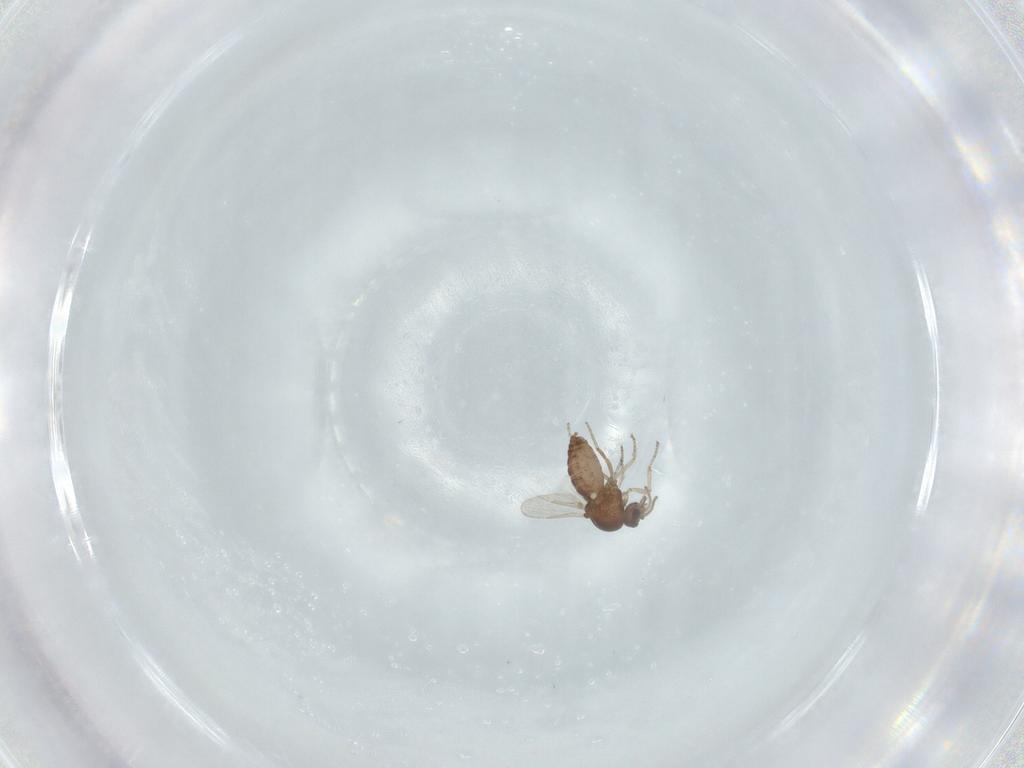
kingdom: Animalia
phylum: Arthropoda
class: Insecta
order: Diptera
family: Ceratopogonidae
